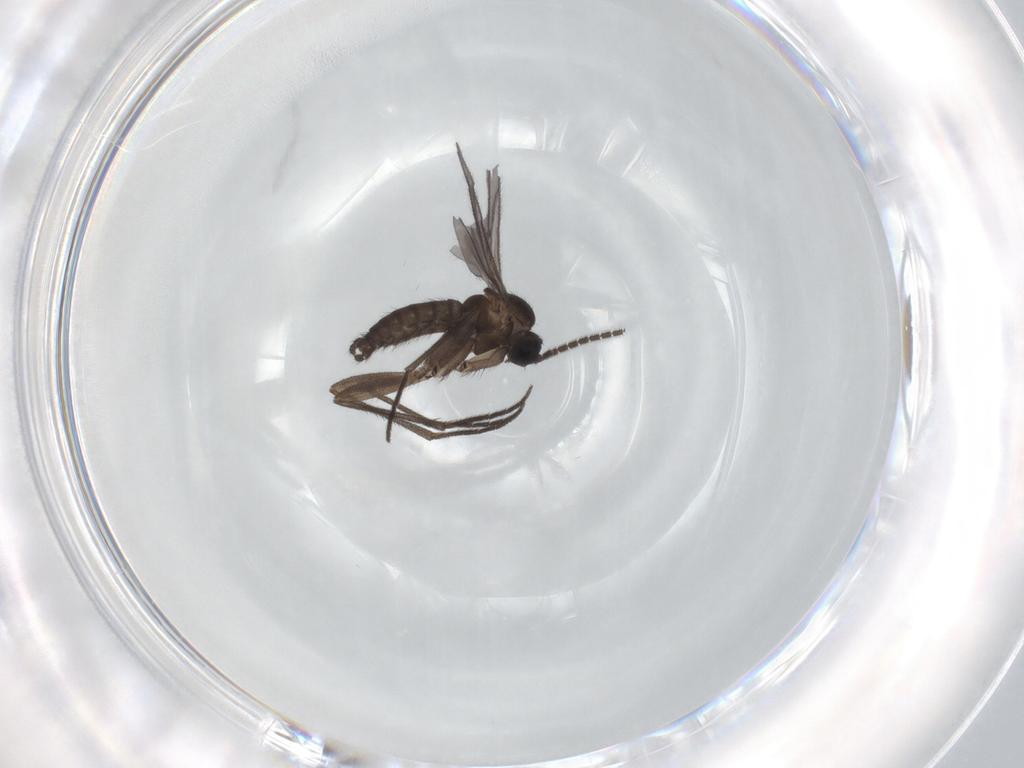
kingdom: Animalia
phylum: Arthropoda
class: Insecta
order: Diptera
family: Sciaridae
